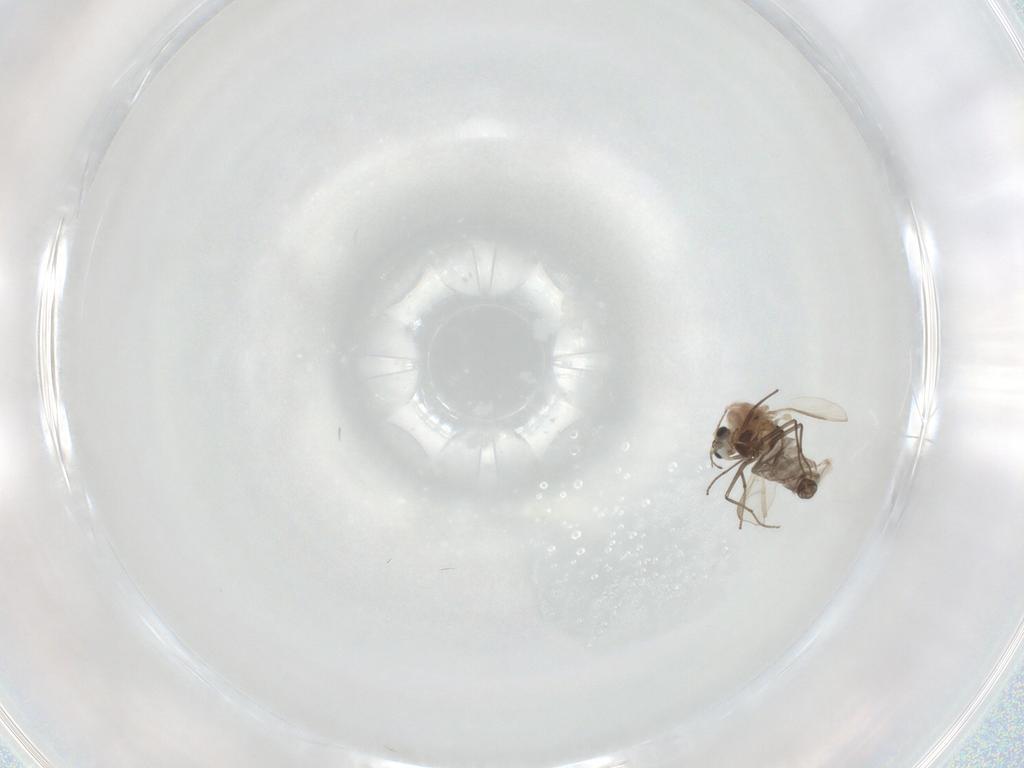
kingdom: Animalia
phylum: Arthropoda
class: Insecta
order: Diptera
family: Cecidomyiidae
